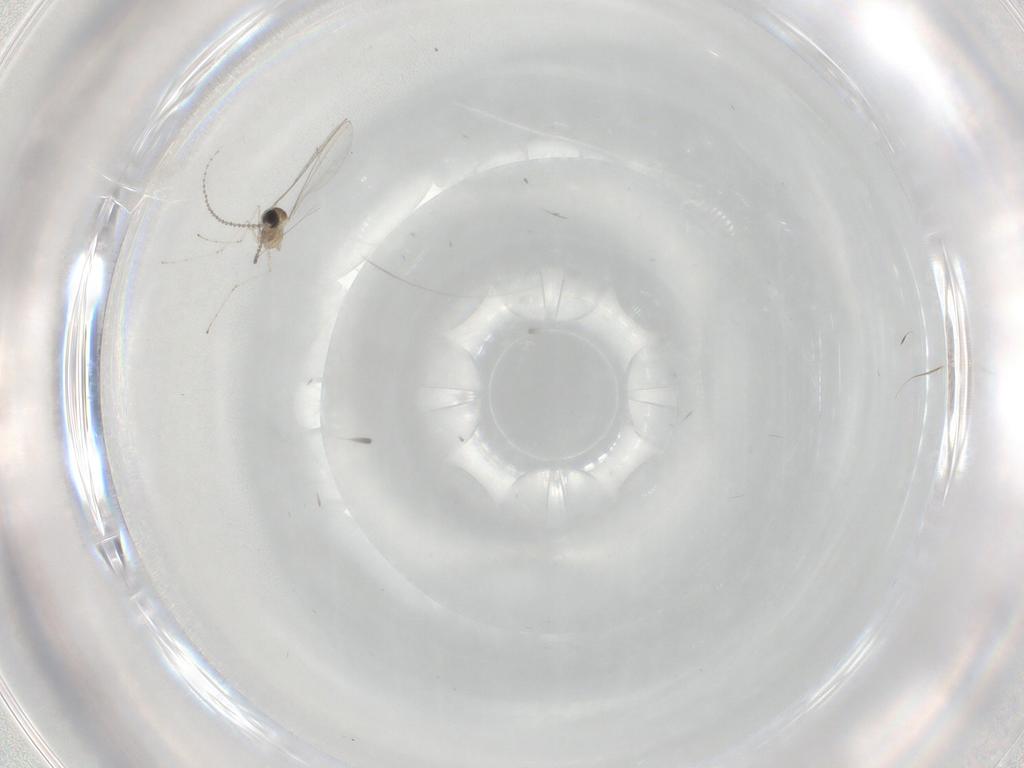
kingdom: Animalia
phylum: Arthropoda
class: Insecta
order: Diptera
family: Cecidomyiidae
